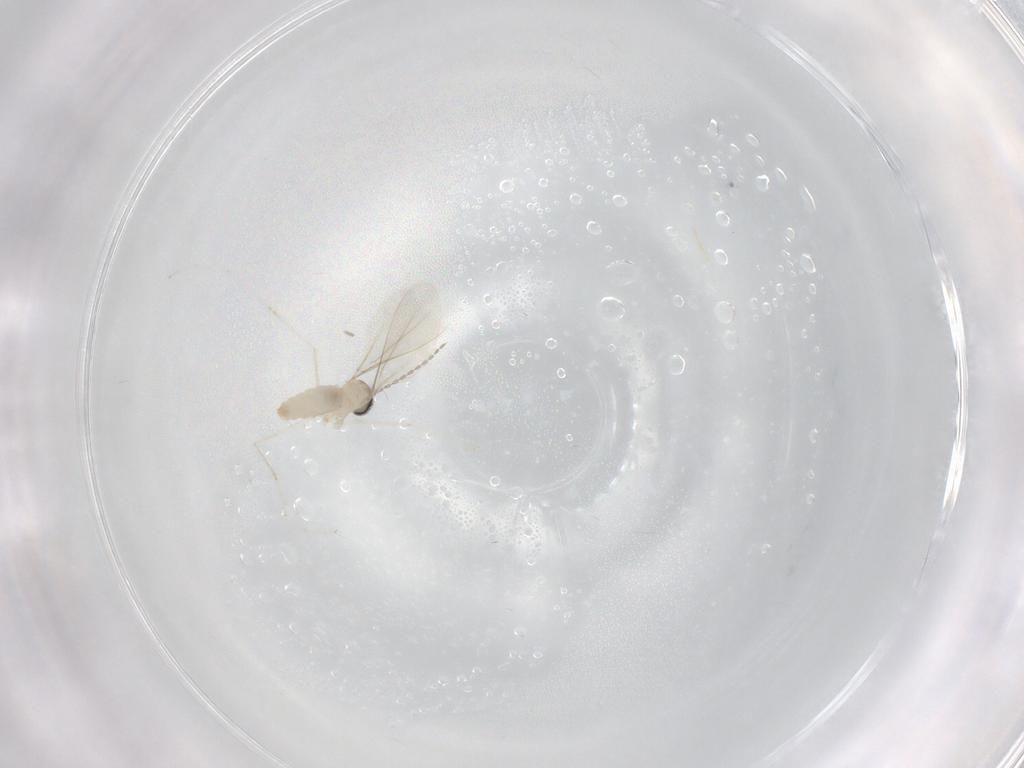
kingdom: Animalia
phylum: Arthropoda
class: Insecta
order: Diptera
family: Cecidomyiidae
